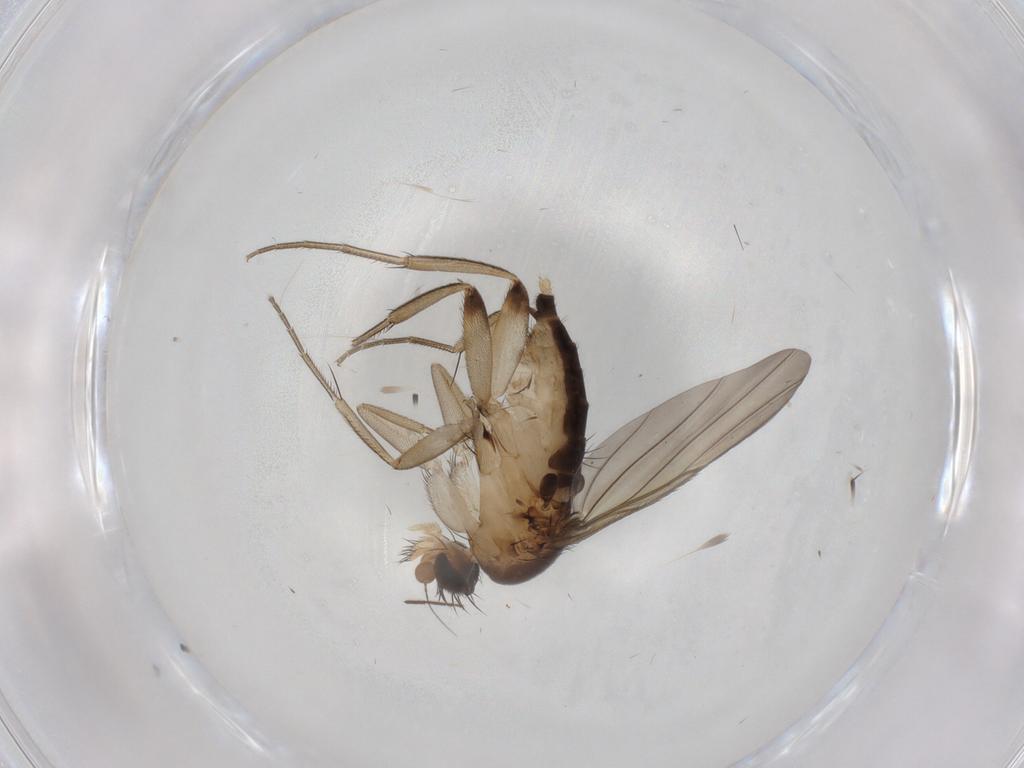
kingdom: Animalia
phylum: Arthropoda
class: Insecta
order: Diptera
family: Phoridae
